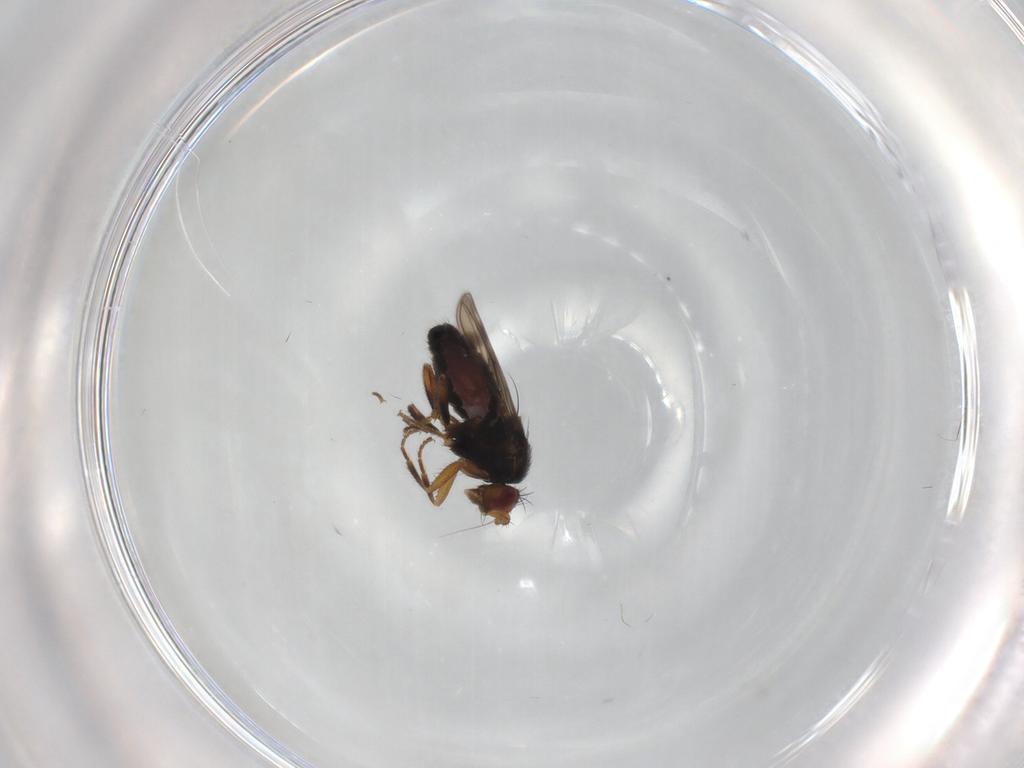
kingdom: Animalia
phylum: Arthropoda
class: Insecta
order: Diptera
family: Sphaeroceridae
